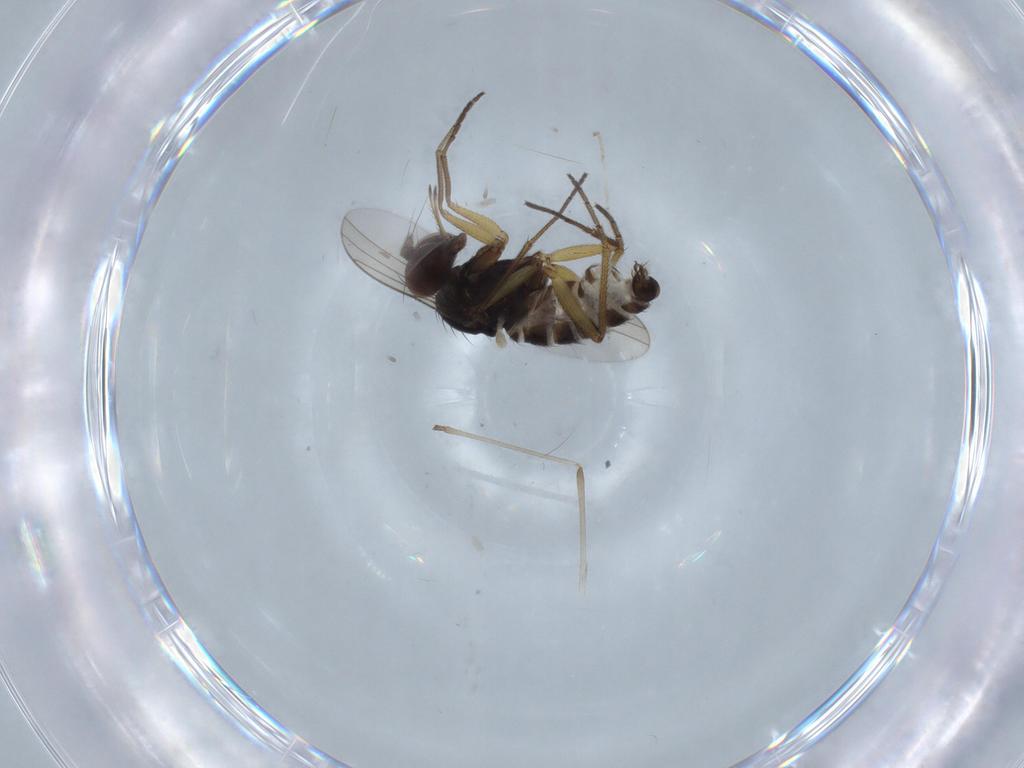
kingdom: Animalia
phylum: Arthropoda
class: Insecta
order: Diptera
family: Dolichopodidae
